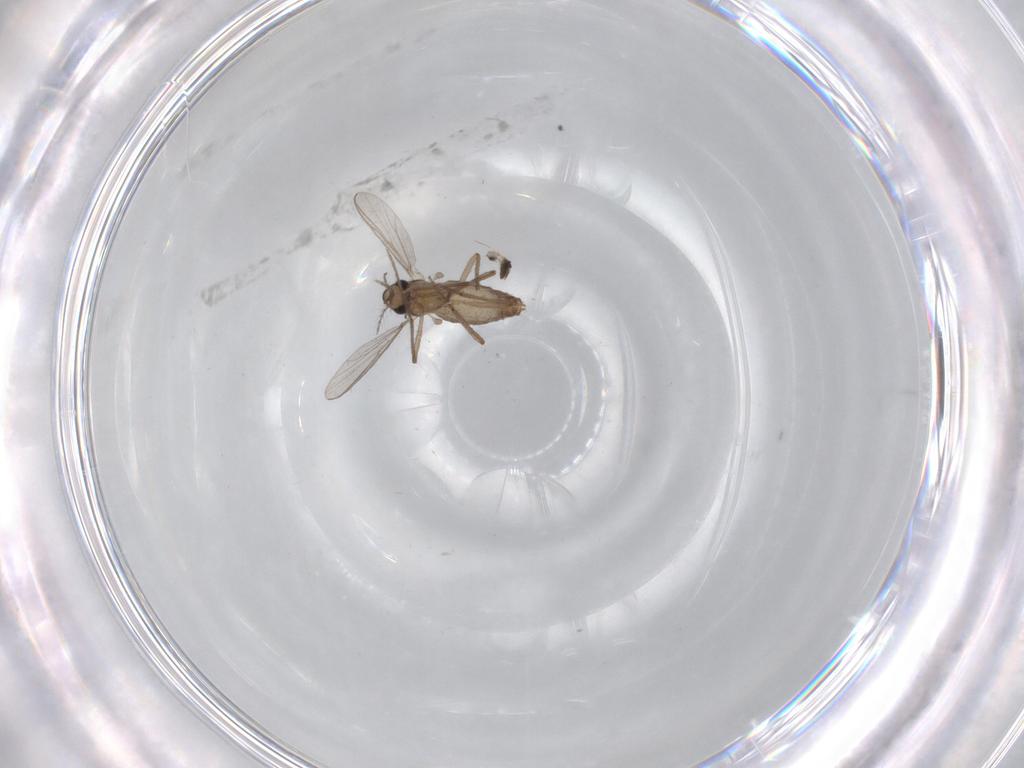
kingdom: Animalia
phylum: Arthropoda
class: Insecta
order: Diptera
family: Chironomidae
